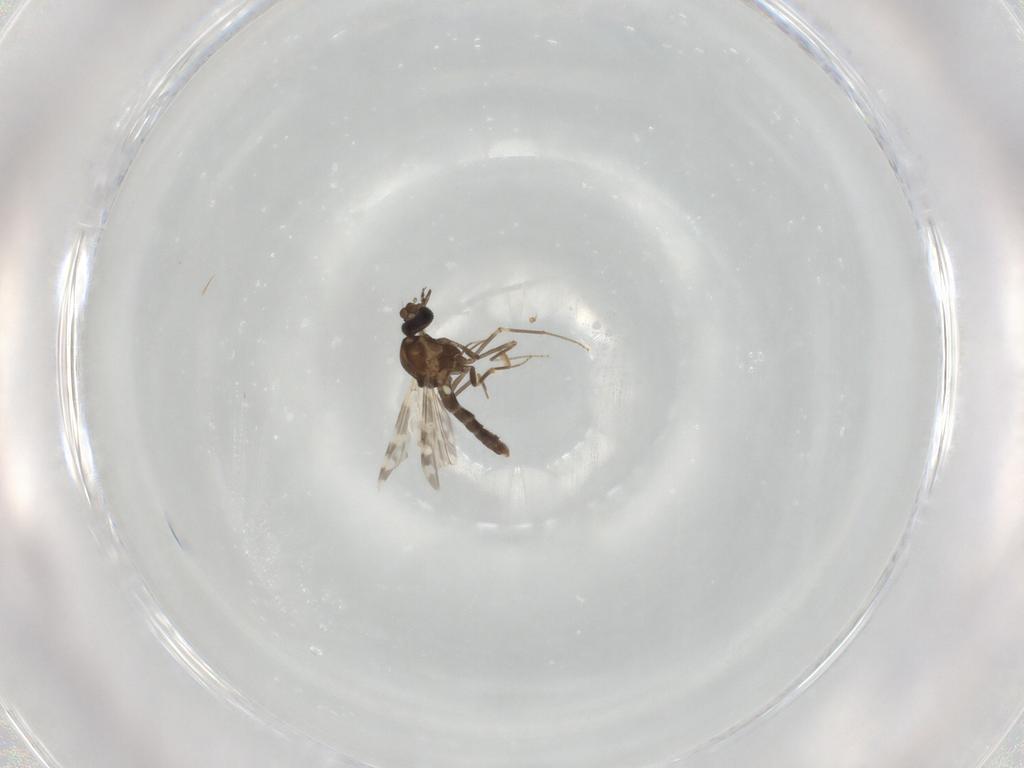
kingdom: Animalia
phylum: Arthropoda
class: Insecta
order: Diptera
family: Ceratopogonidae
